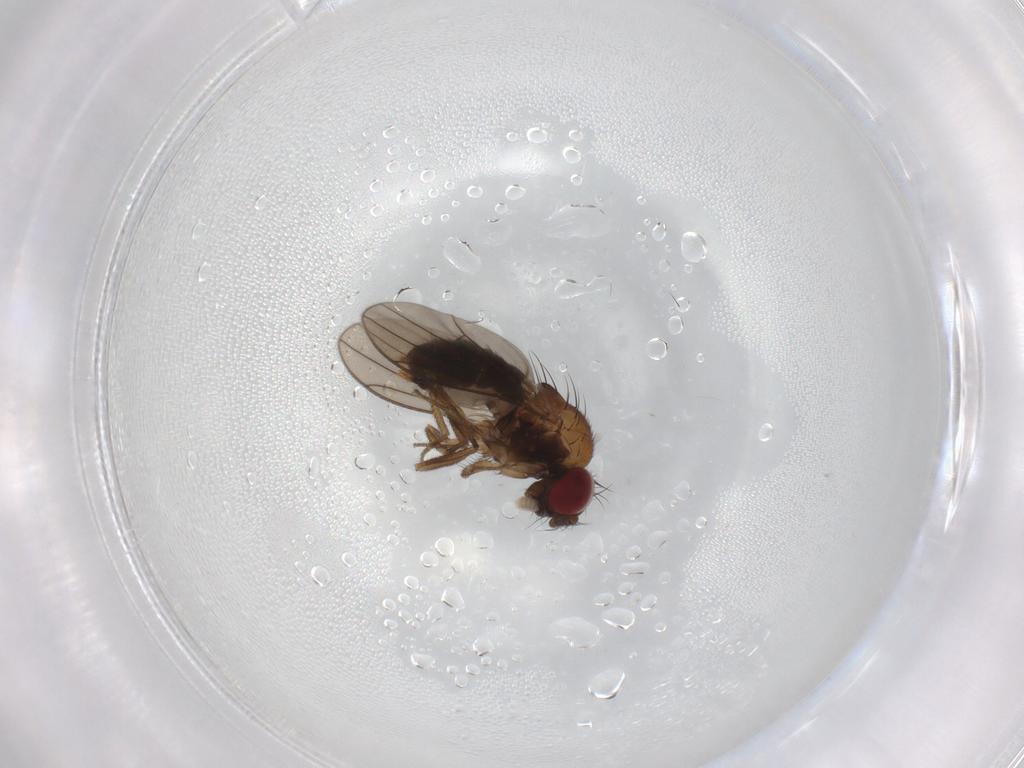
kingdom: Animalia
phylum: Arthropoda
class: Insecta
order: Diptera
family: Drosophilidae
